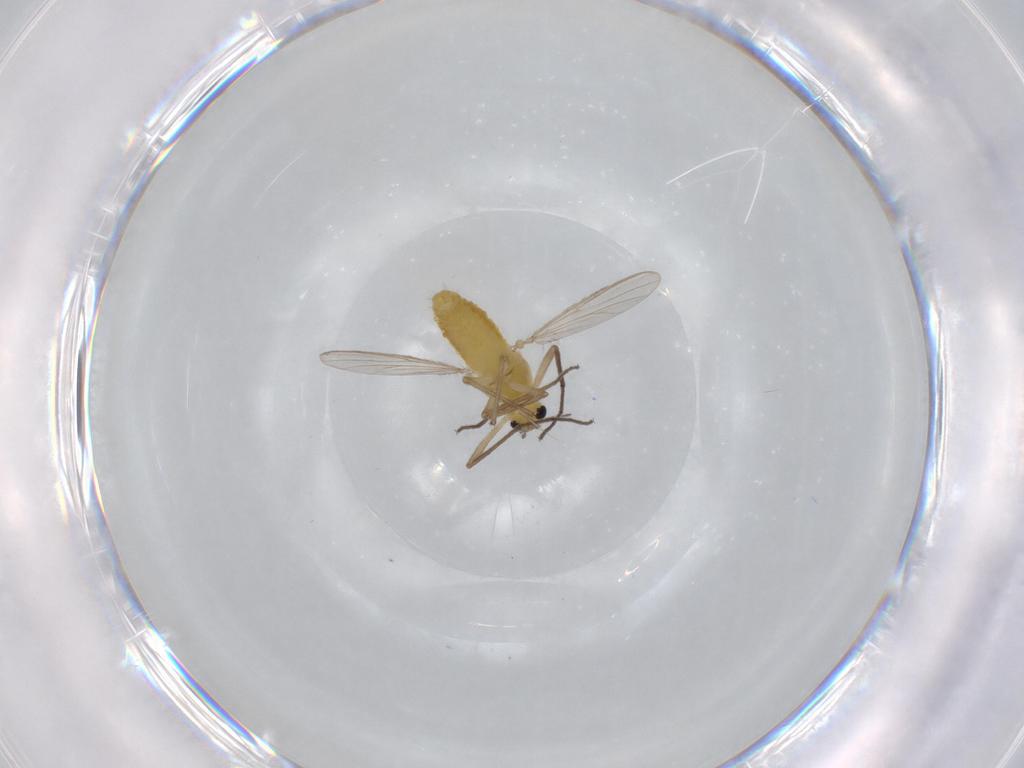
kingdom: Animalia
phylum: Arthropoda
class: Insecta
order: Diptera
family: Chironomidae
